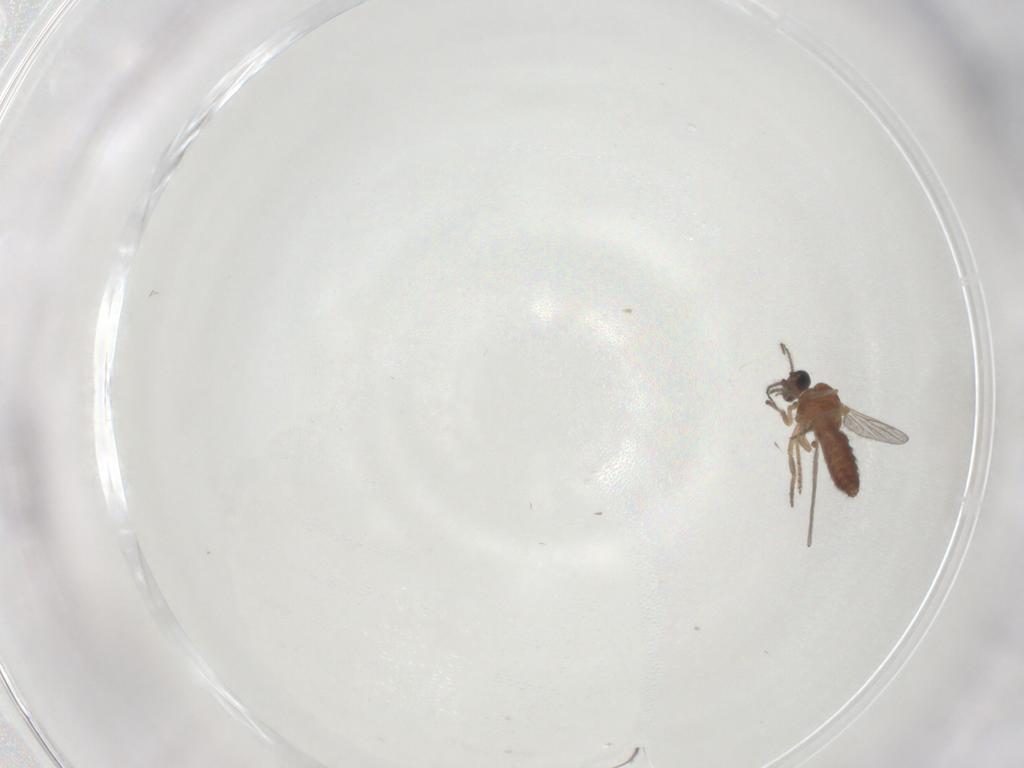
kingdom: Animalia
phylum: Arthropoda
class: Insecta
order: Diptera
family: Ceratopogonidae
